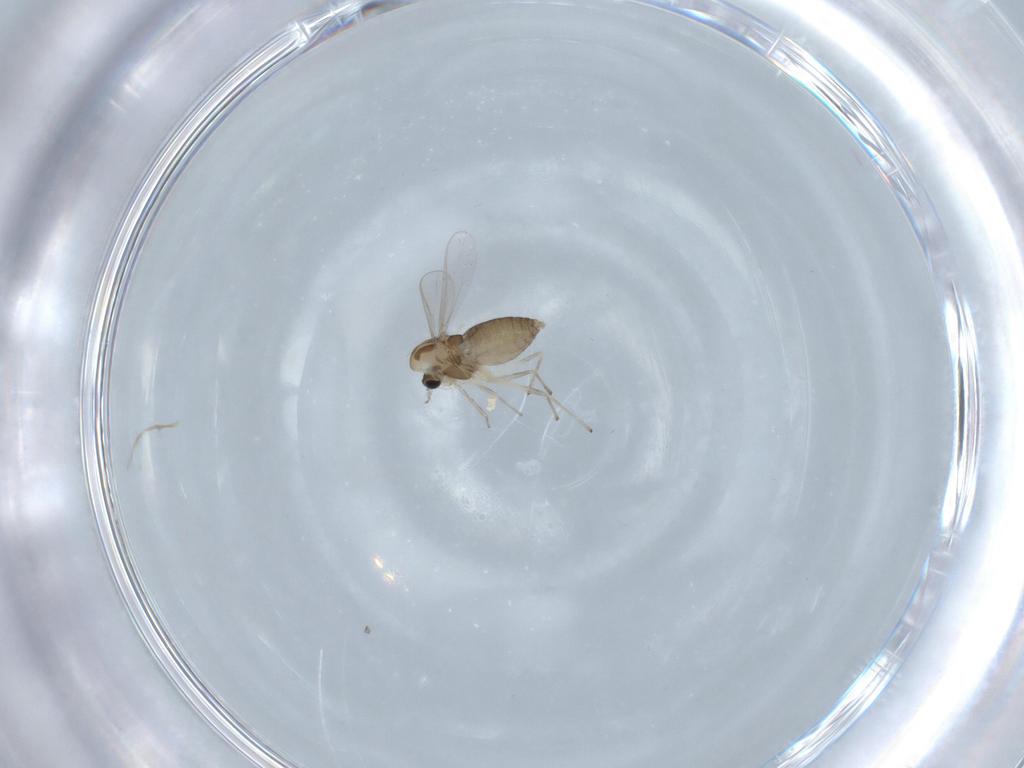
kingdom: Animalia
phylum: Arthropoda
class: Insecta
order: Diptera
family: Chironomidae
